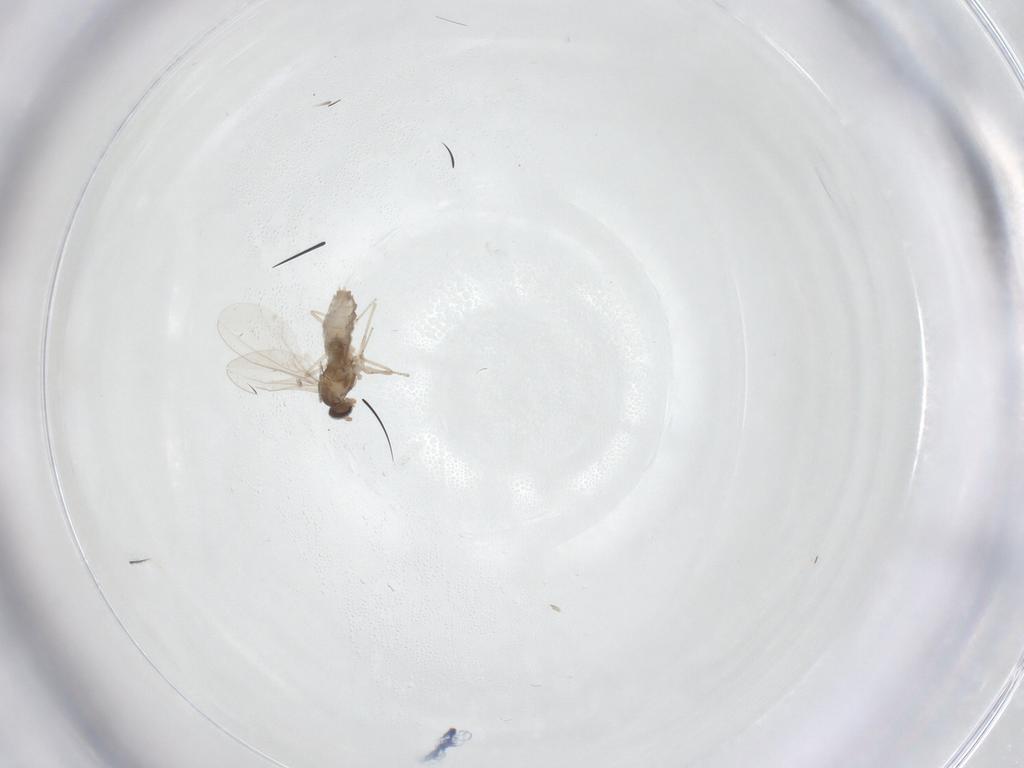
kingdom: Animalia
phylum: Arthropoda
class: Insecta
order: Diptera
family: Cecidomyiidae
